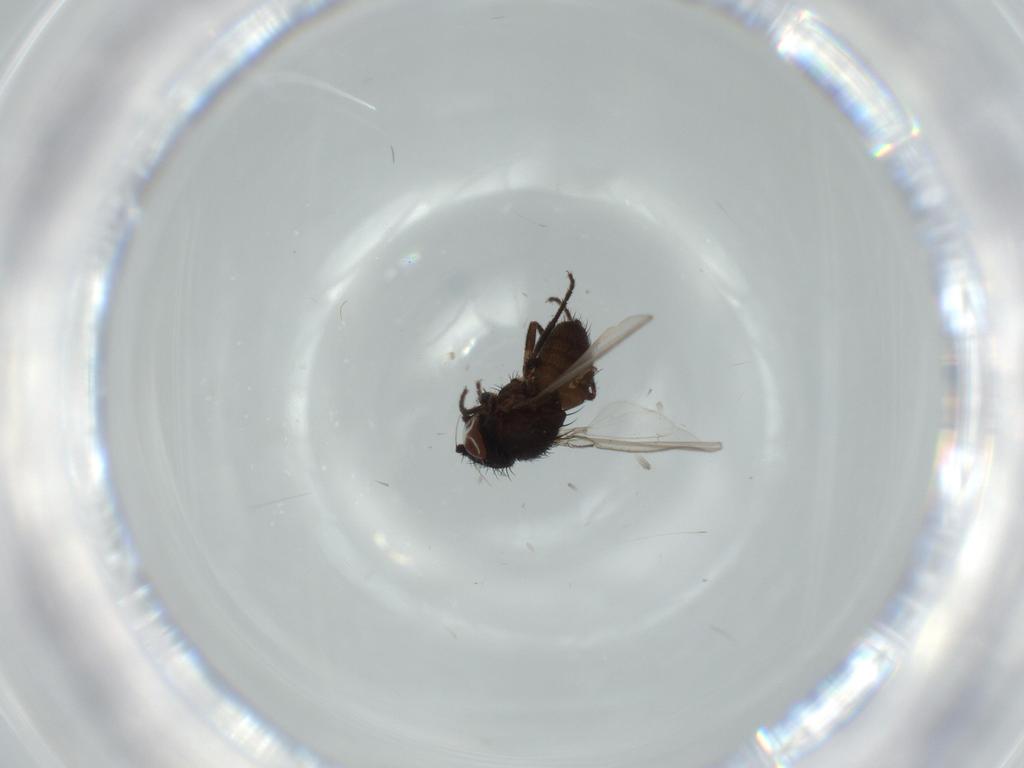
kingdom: Animalia
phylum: Arthropoda
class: Insecta
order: Diptera
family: Milichiidae
